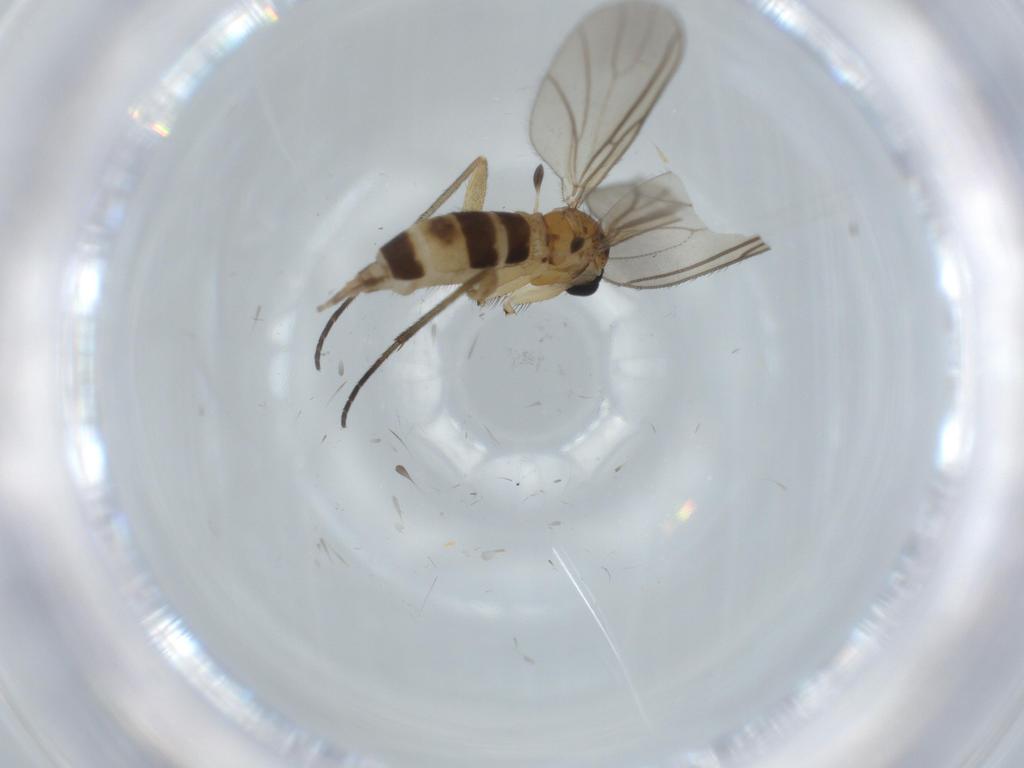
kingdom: Animalia
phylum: Arthropoda
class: Insecta
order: Diptera
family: Sciaridae
